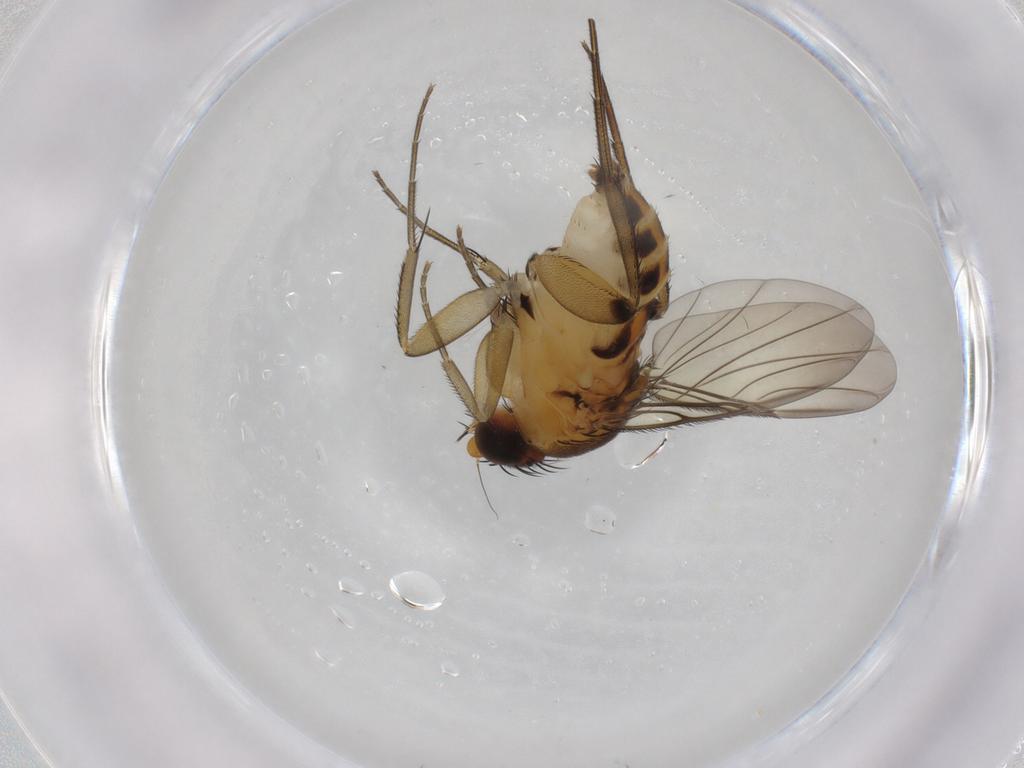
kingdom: Animalia
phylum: Arthropoda
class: Insecta
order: Diptera
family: Phoridae
